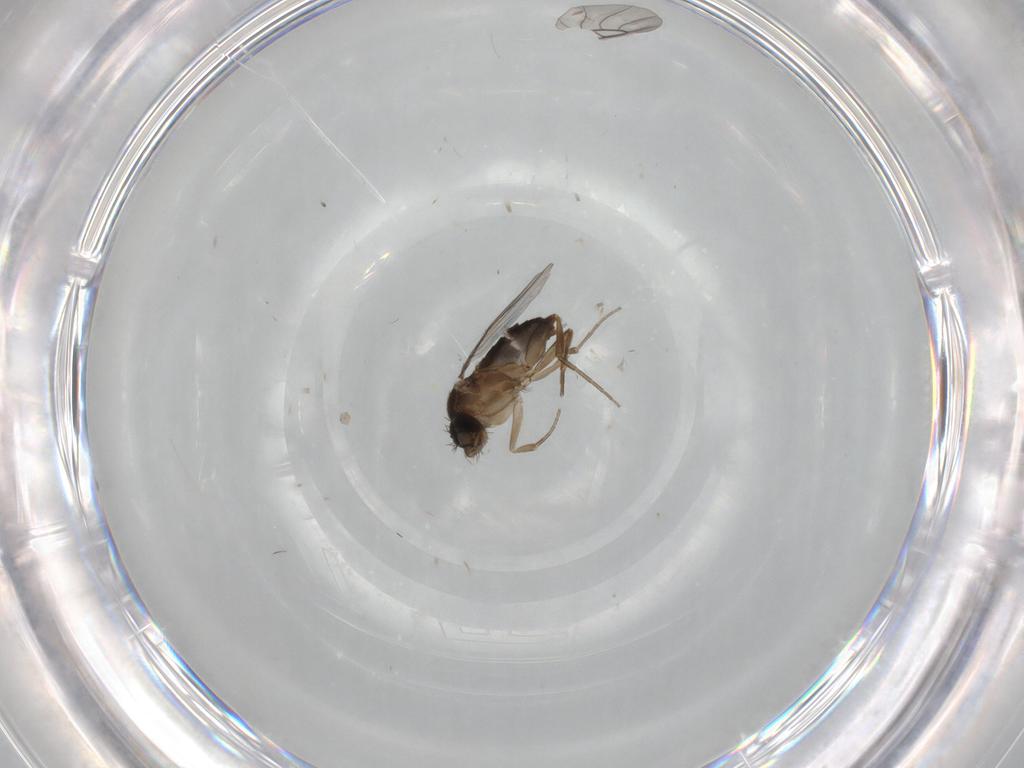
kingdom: Animalia
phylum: Arthropoda
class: Insecta
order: Diptera
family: Phoridae
